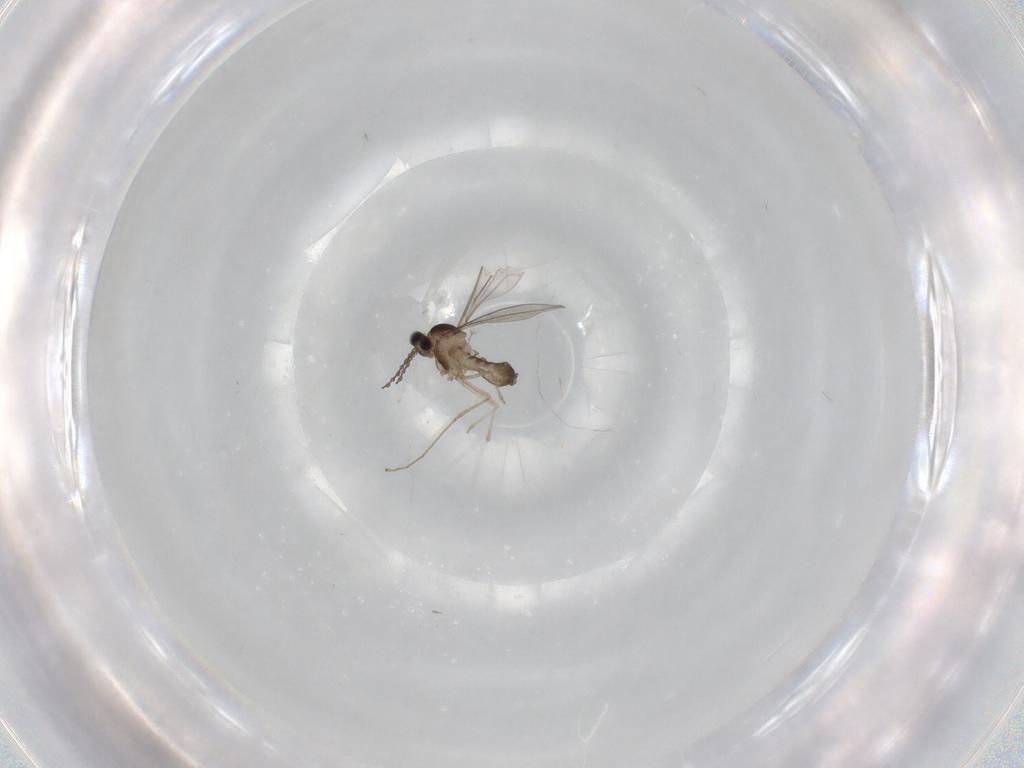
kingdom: Animalia
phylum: Arthropoda
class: Insecta
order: Diptera
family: Cecidomyiidae
